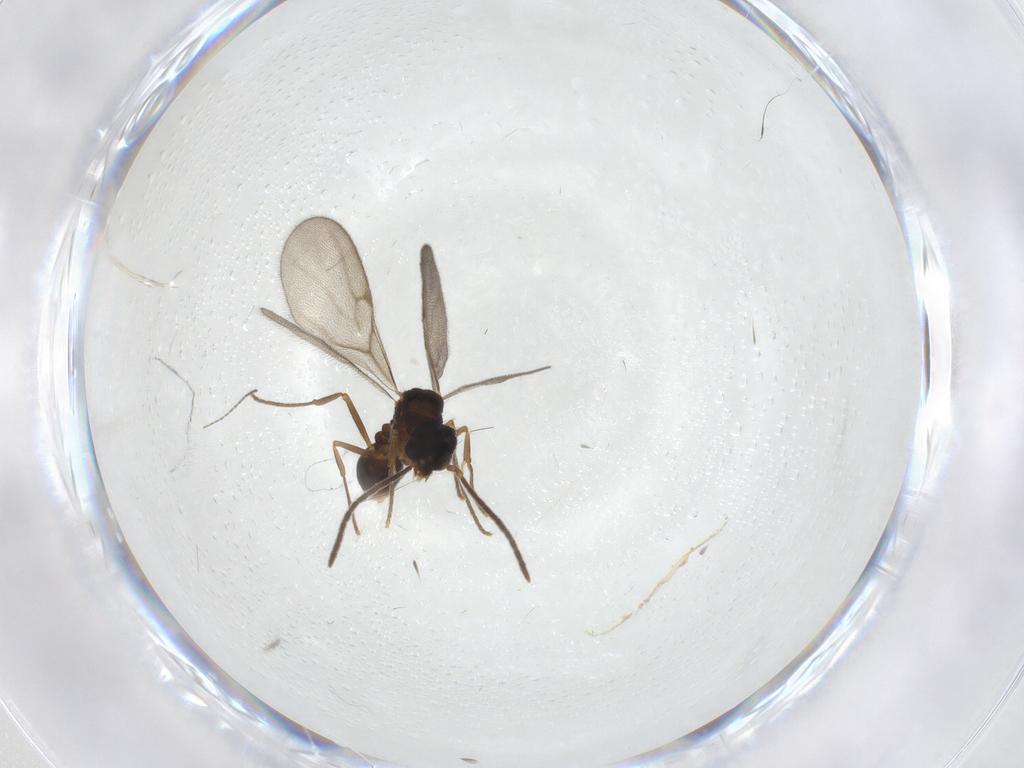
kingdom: Animalia
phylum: Arthropoda
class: Insecta
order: Hymenoptera
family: Formicidae
